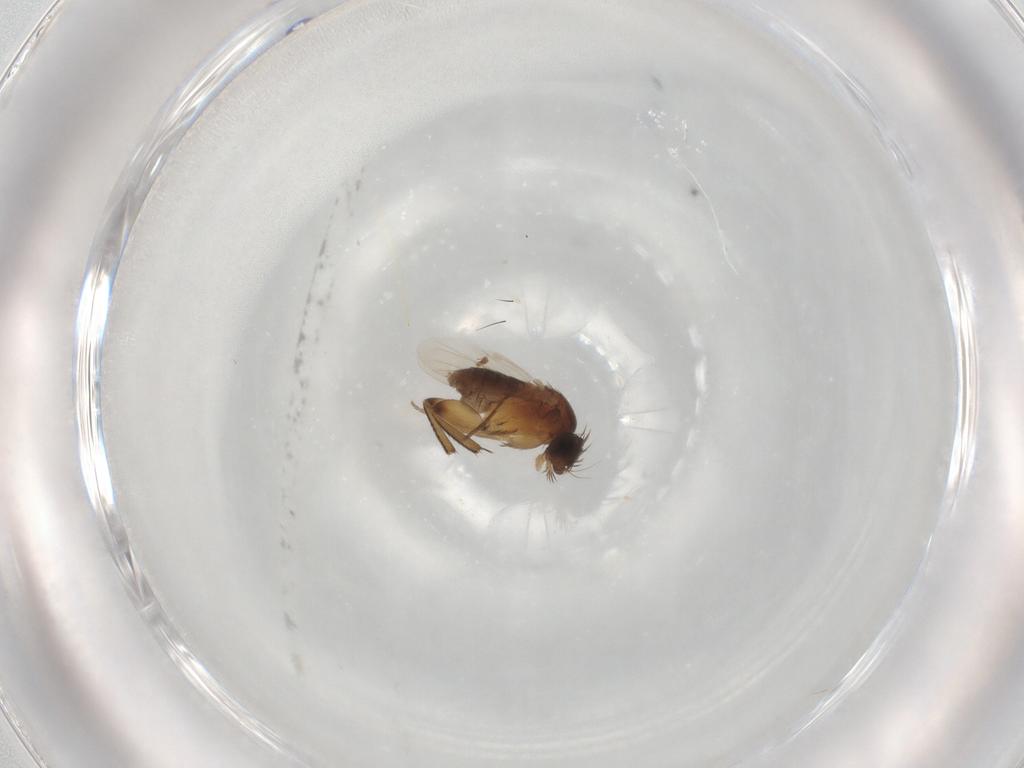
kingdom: Animalia
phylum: Arthropoda
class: Insecta
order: Diptera
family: Phoridae
